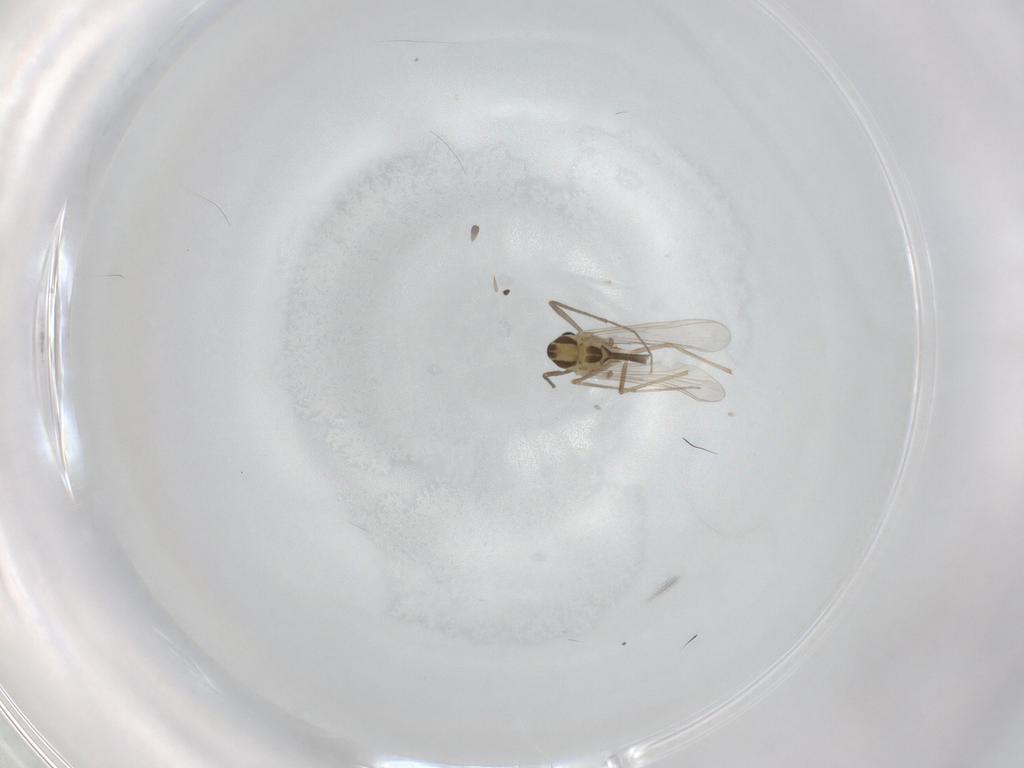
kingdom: Animalia
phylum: Arthropoda
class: Insecta
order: Diptera
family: Chironomidae
